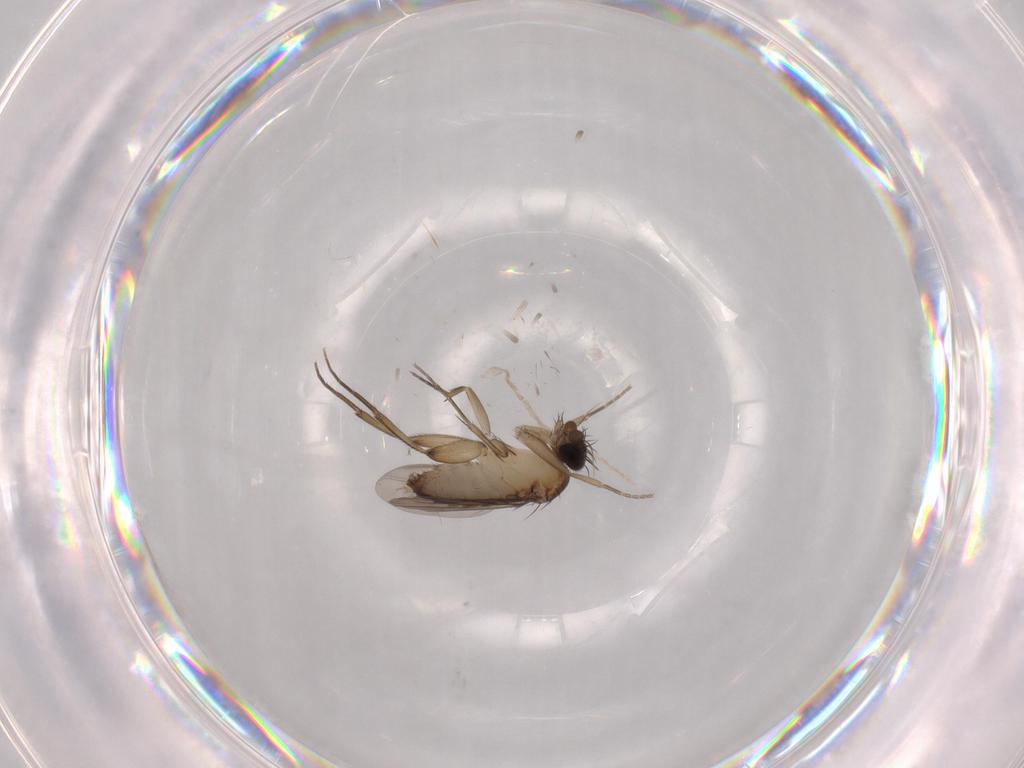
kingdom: Animalia
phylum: Arthropoda
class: Insecta
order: Diptera
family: Phoridae
